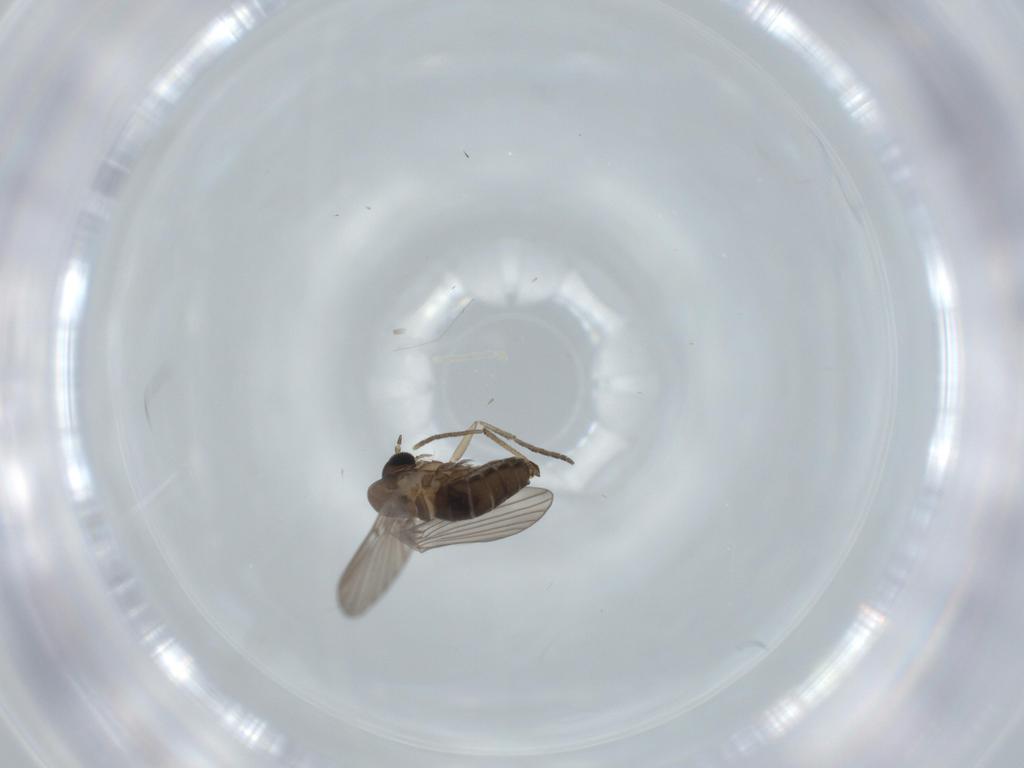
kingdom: Animalia
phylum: Arthropoda
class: Insecta
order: Diptera
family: Psychodidae
